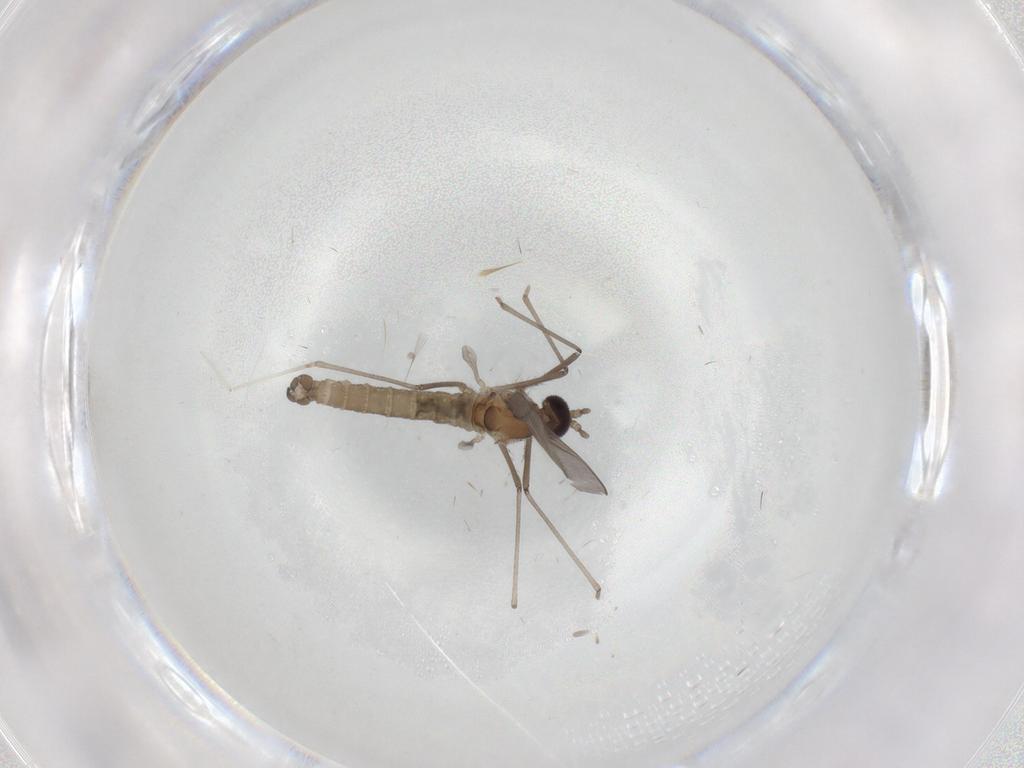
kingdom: Animalia
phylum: Arthropoda
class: Insecta
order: Diptera
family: Cecidomyiidae
